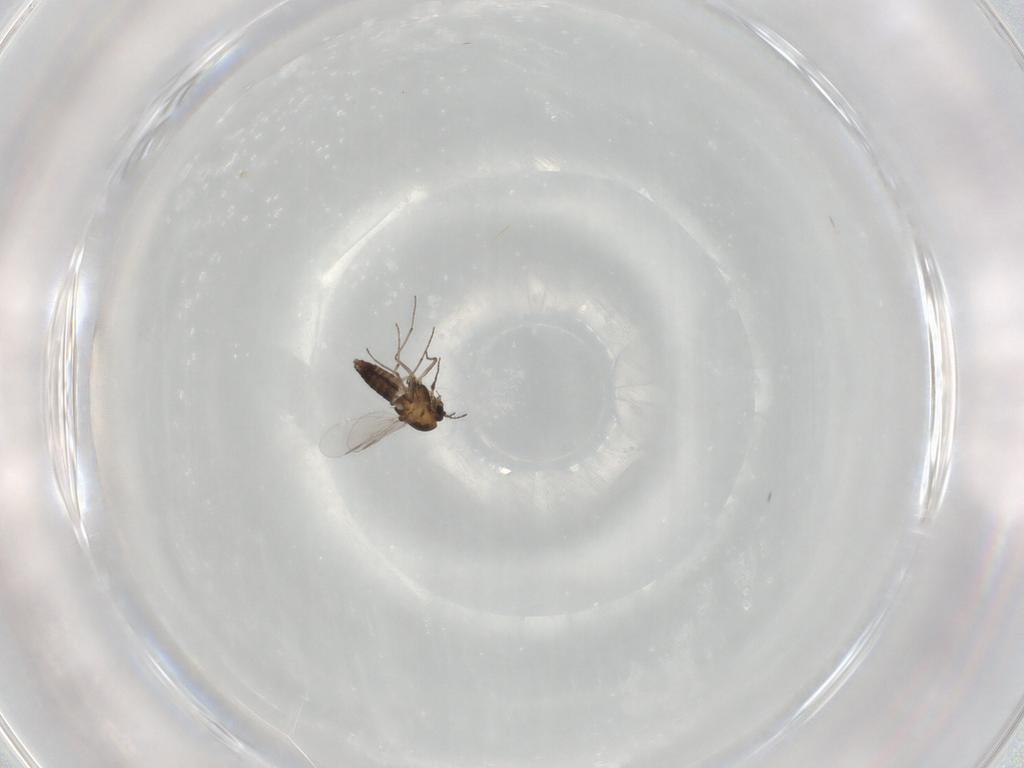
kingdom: Animalia
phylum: Arthropoda
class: Insecta
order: Diptera
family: Chironomidae
